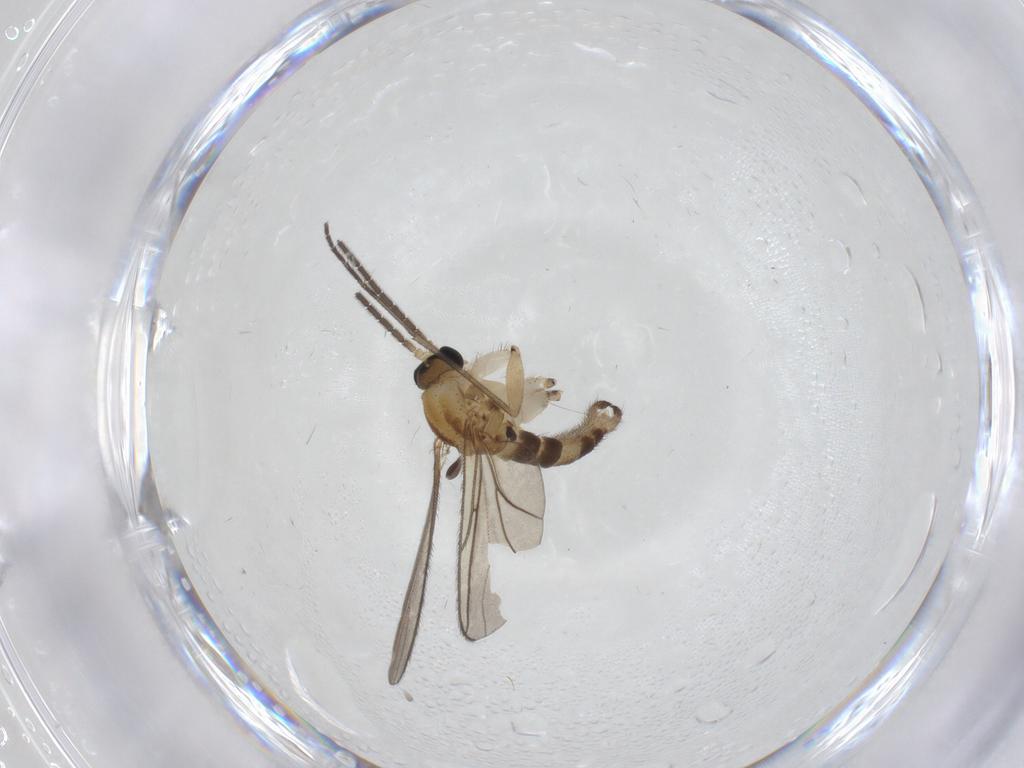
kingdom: Animalia
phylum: Arthropoda
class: Insecta
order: Diptera
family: Sciaridae
